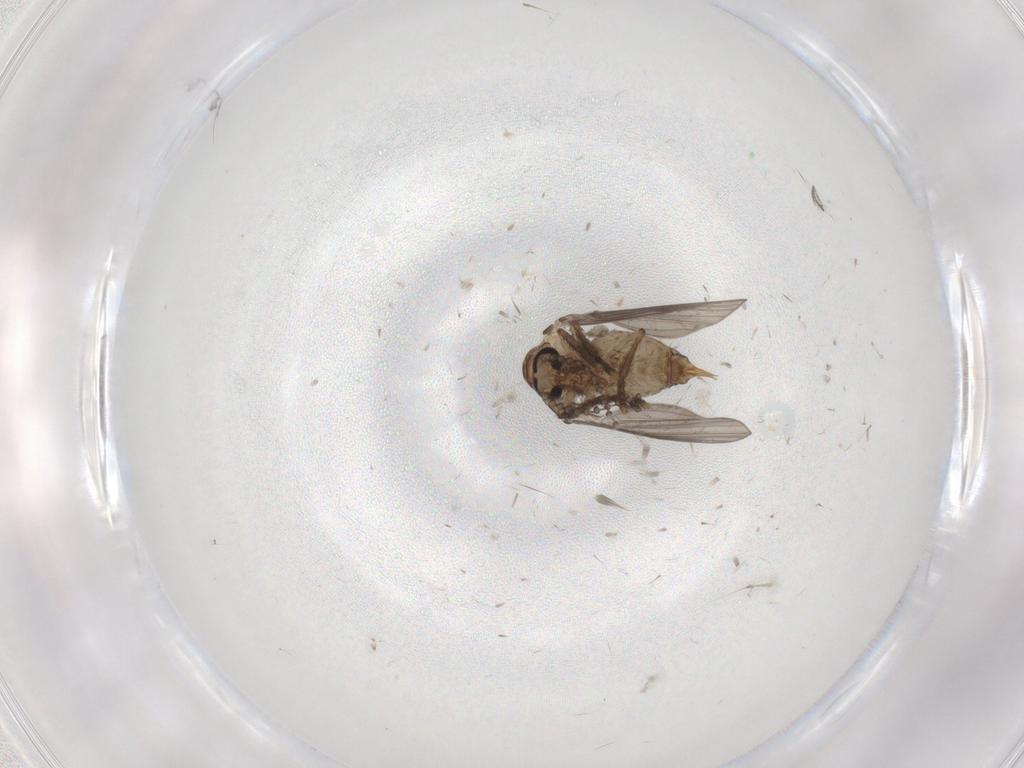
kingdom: Animalia
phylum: Arthropoda
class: Insecta
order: Diptera
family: Psychodidae
